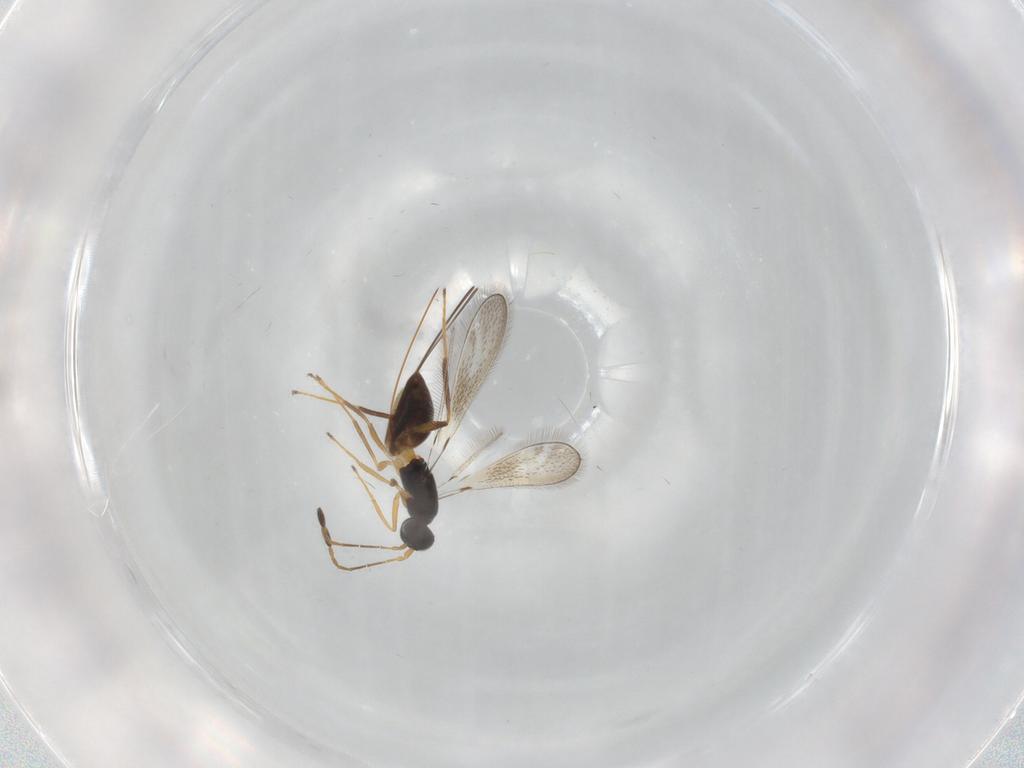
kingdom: Animalia
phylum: Arthropoda
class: Insecta
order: Hymenoptera
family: Mymaridae
